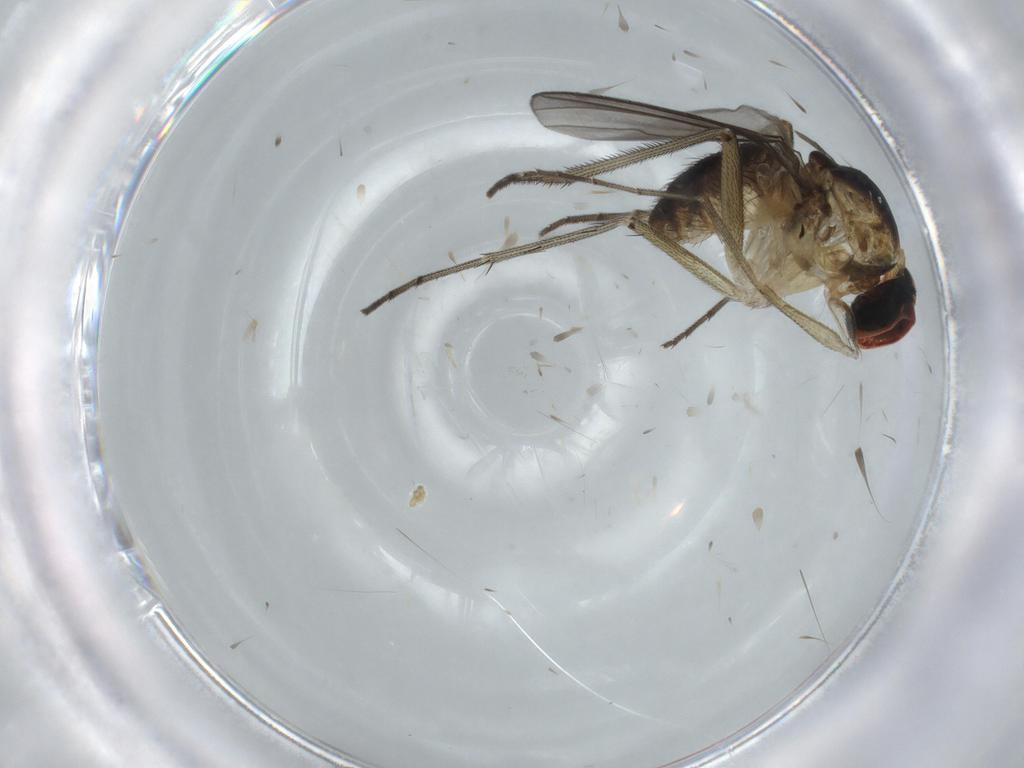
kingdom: Animalia
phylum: Arthropoda
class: Insecta
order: Diptera
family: Dolichopodidae
